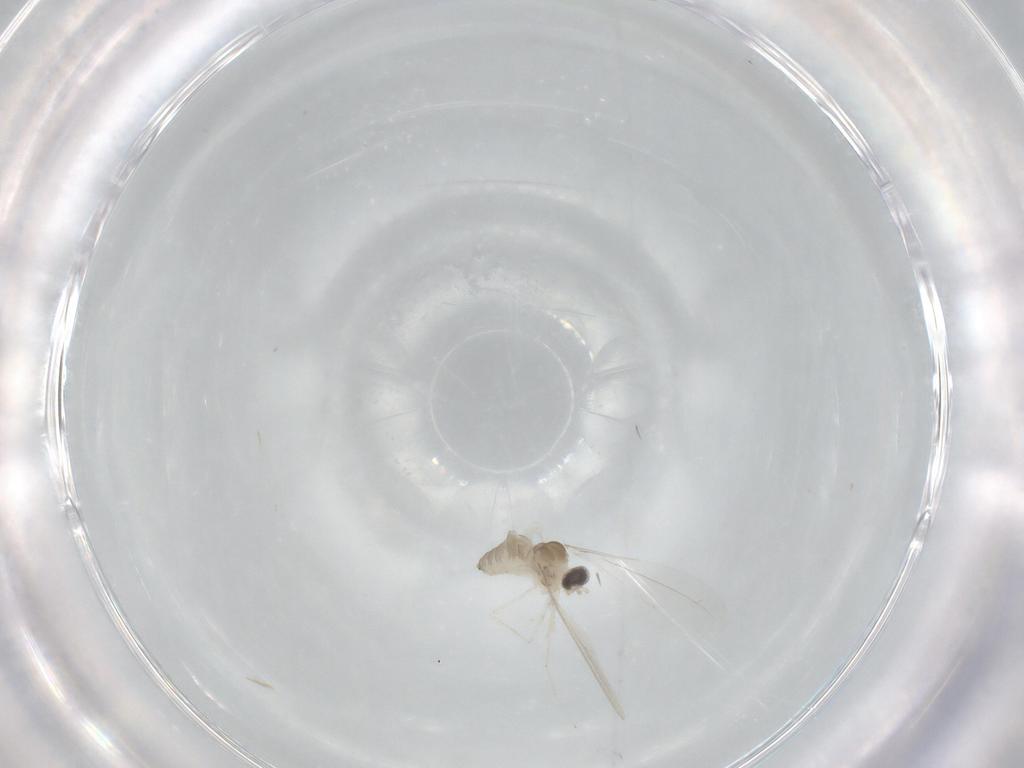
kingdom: Animalia
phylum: Arthropoda
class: Insecta
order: Diptera
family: Cecidomyiidae
